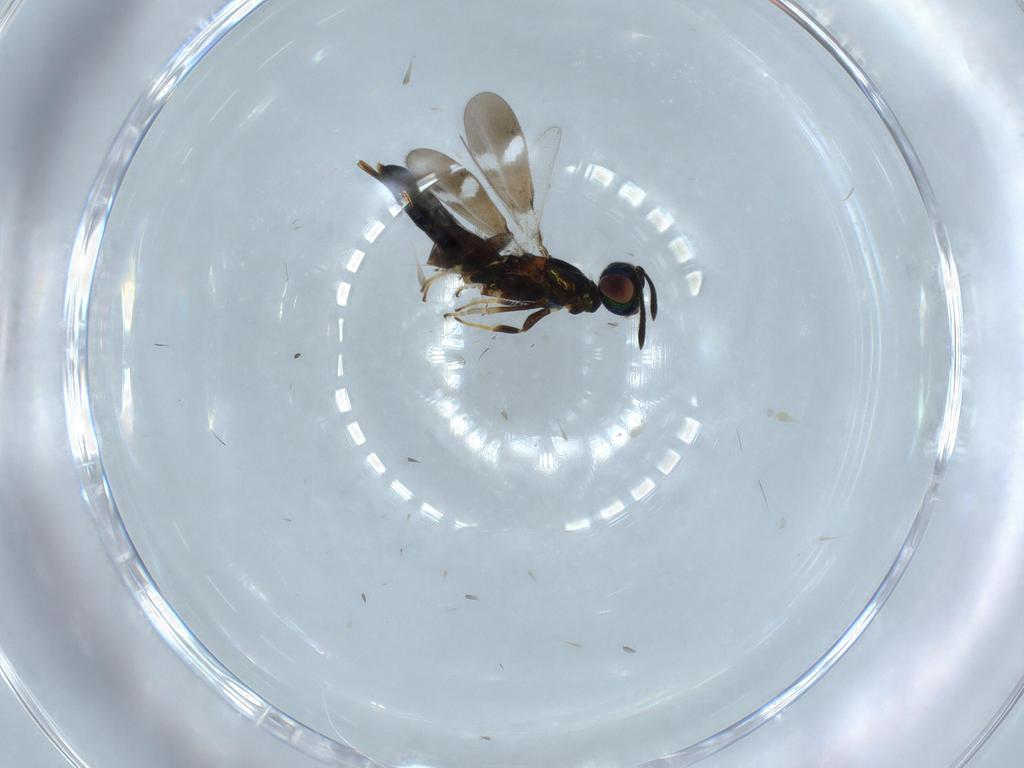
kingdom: Animalia
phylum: Arthropoda
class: Insecta
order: Hymenoptera
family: Eupelmidae
